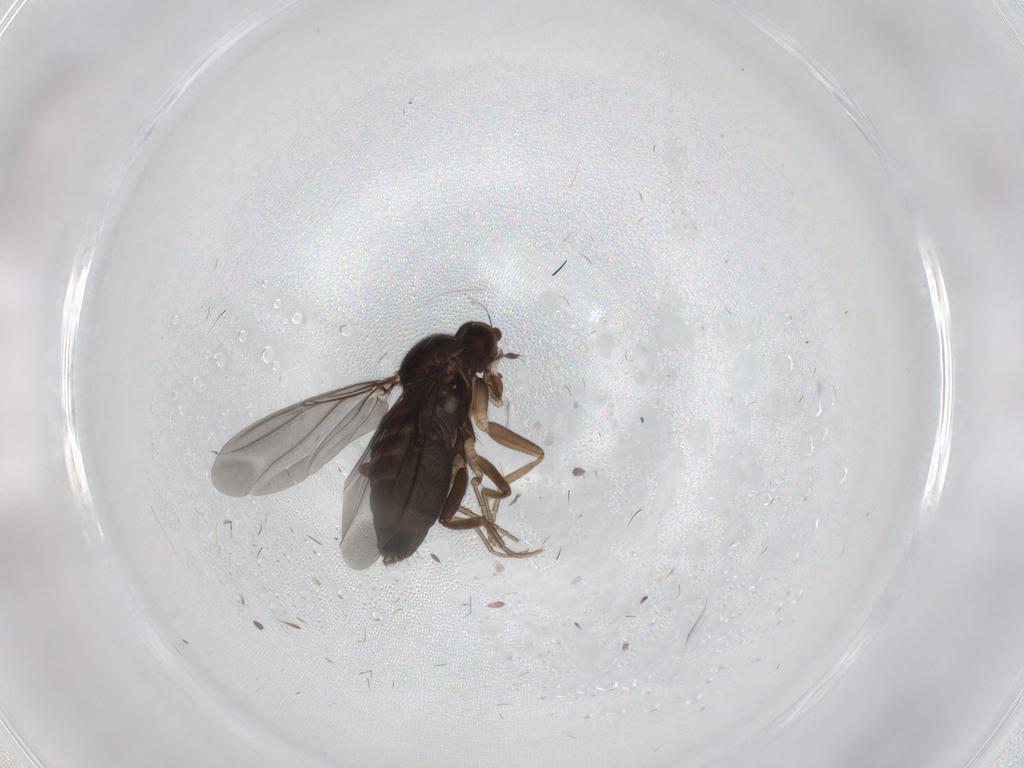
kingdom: Animalia
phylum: Arthropoda
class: Insecta
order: Diptera
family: Phoridae
